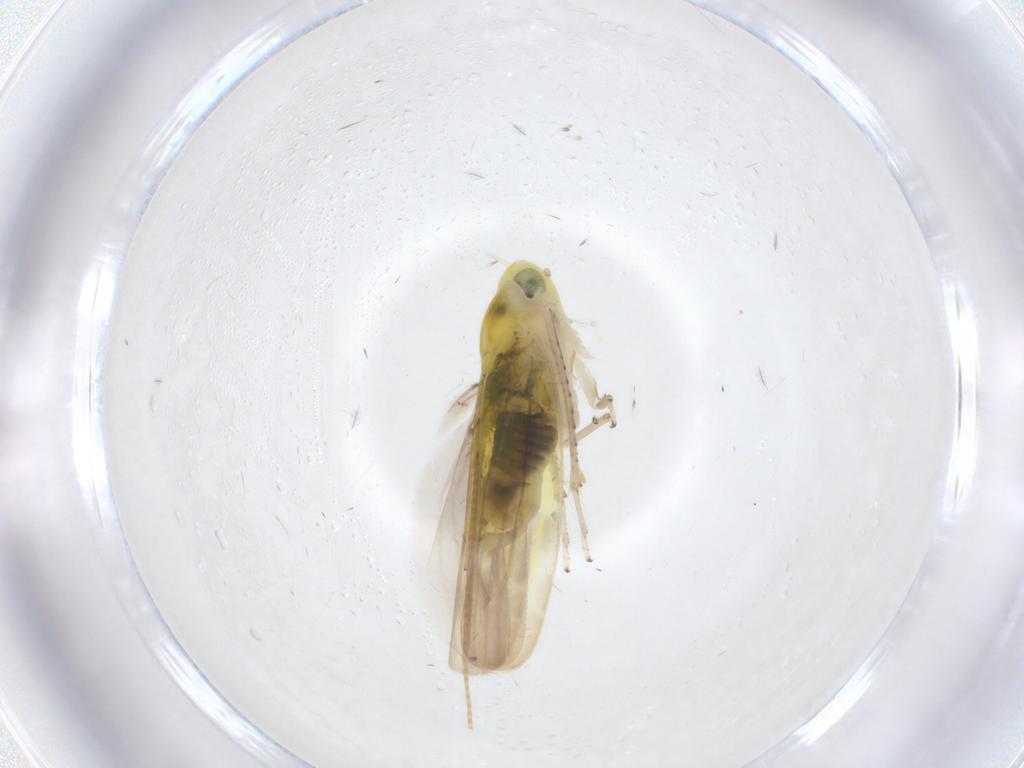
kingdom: Animalia
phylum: Arthropoda
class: Insecta
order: Hemiptera
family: Cicadellidae
